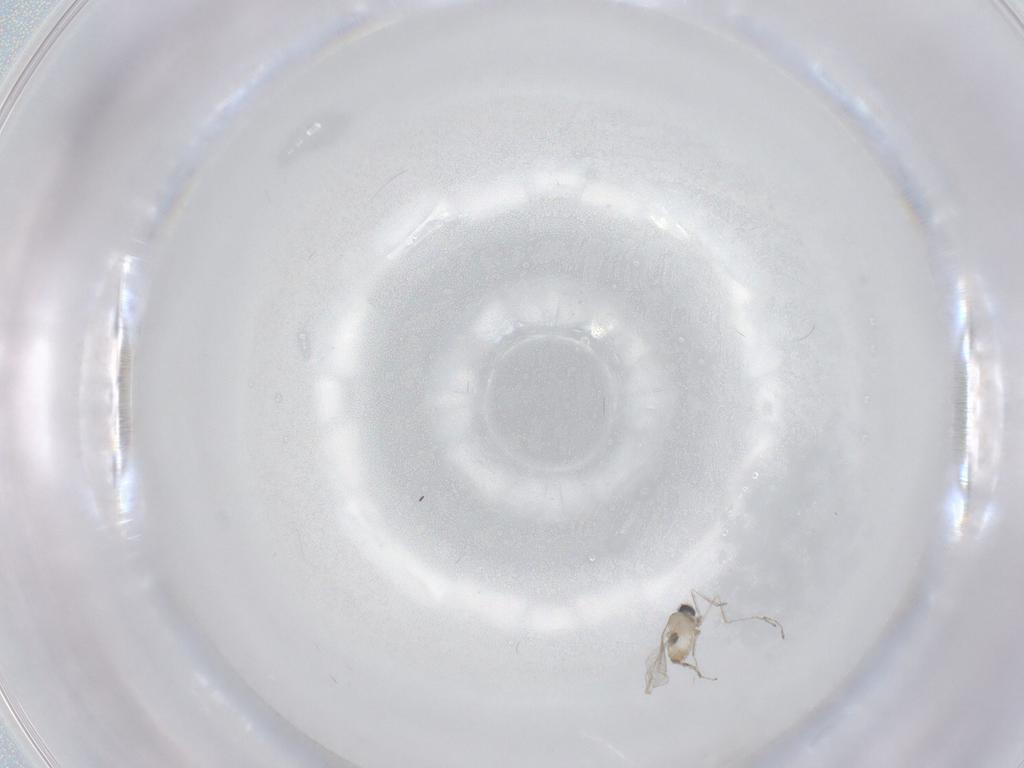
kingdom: Animalia
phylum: Arthropoda
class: Insecta
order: Diptera
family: Cecidomyiidae
